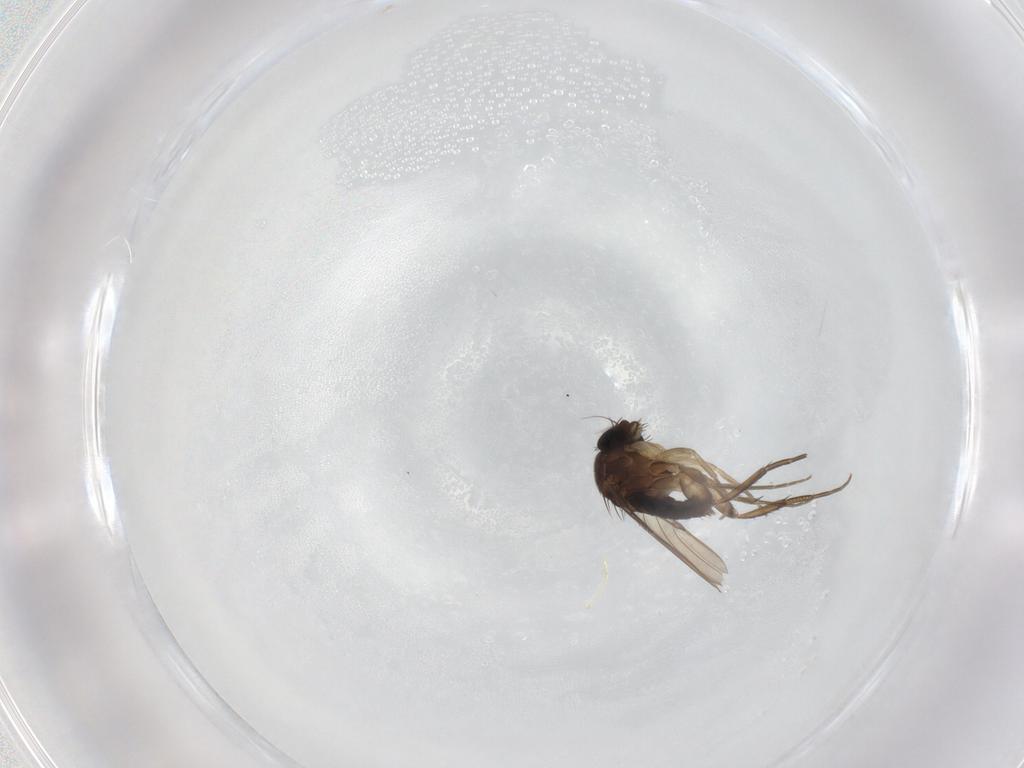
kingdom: Animalia
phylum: Arthropoda
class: Insecta
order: Diptera
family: Phoridae
